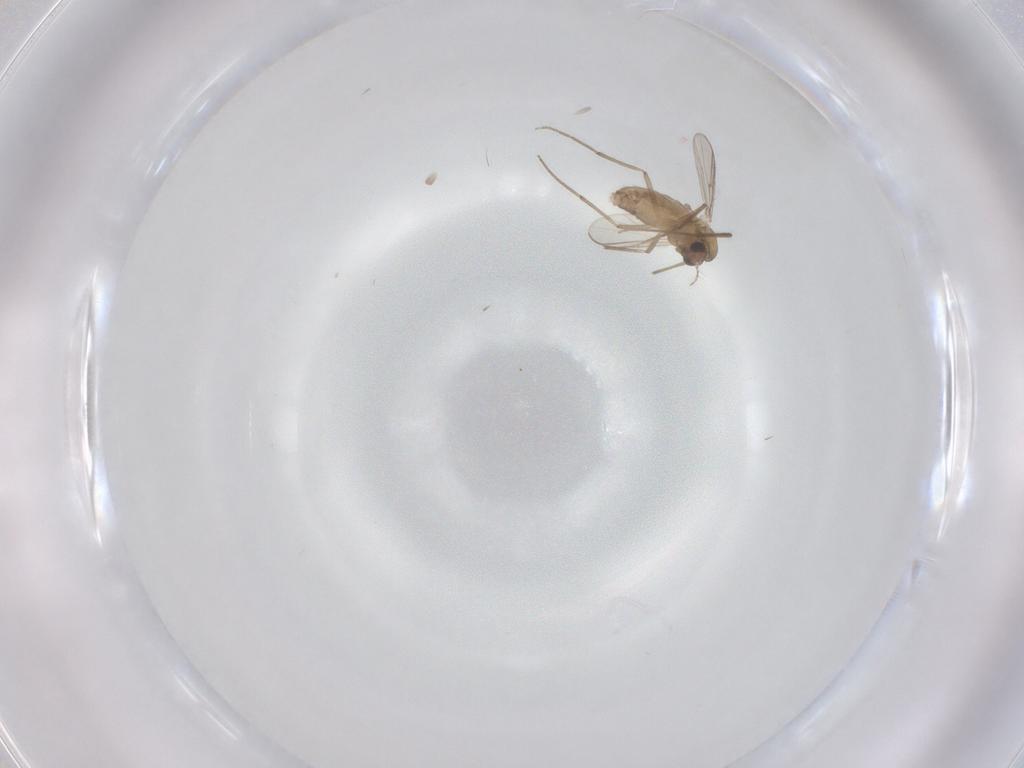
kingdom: Animalia
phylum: Arthropoda
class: Insecta
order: Diptera
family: Chironomidae
